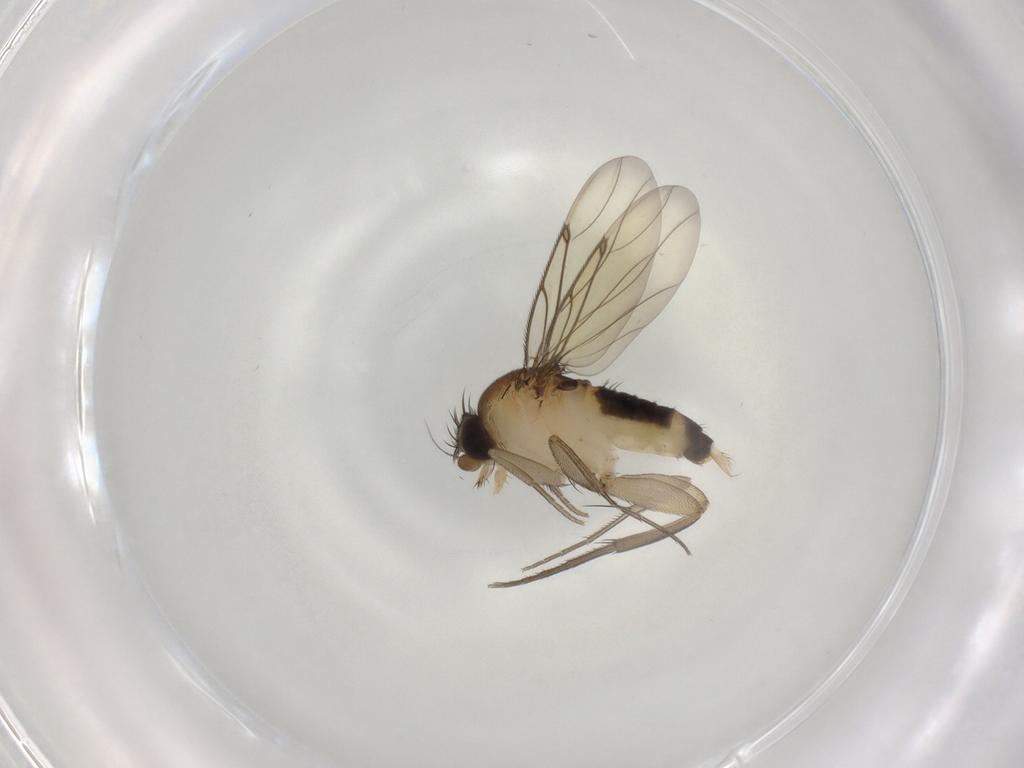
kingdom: Animalia
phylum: Arthropoda
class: Insecta
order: Diptera
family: Phoridae
